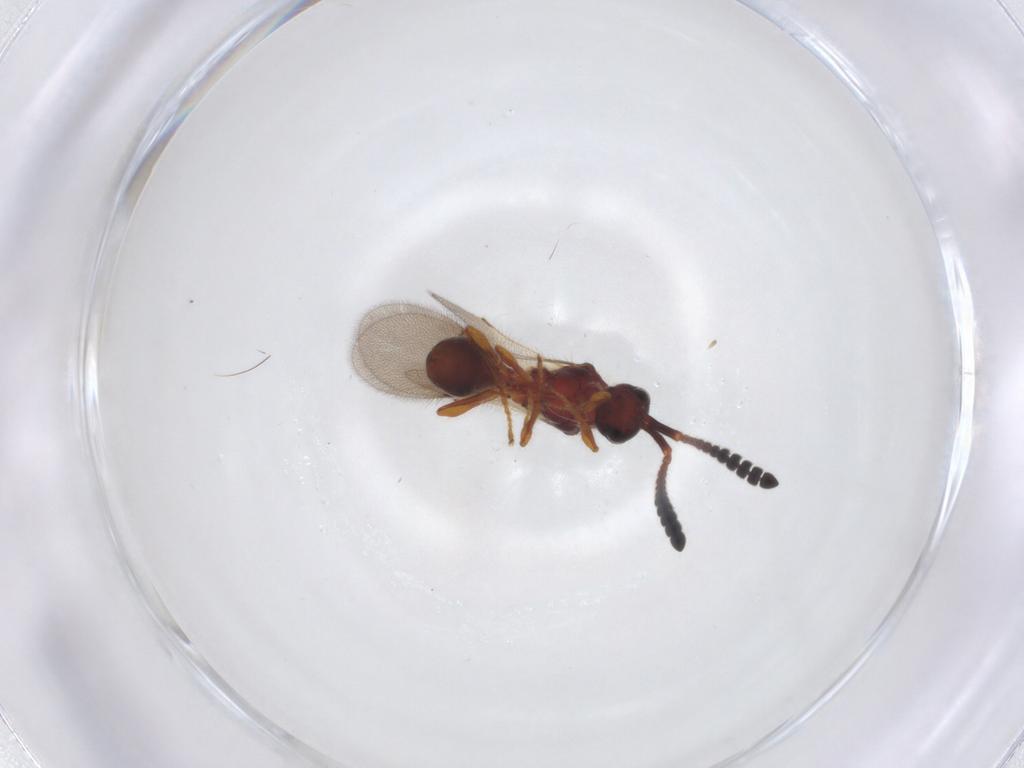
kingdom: Animalia
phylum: Arthropoda
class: Insecta
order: Hymenoptera
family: Diapriidae
